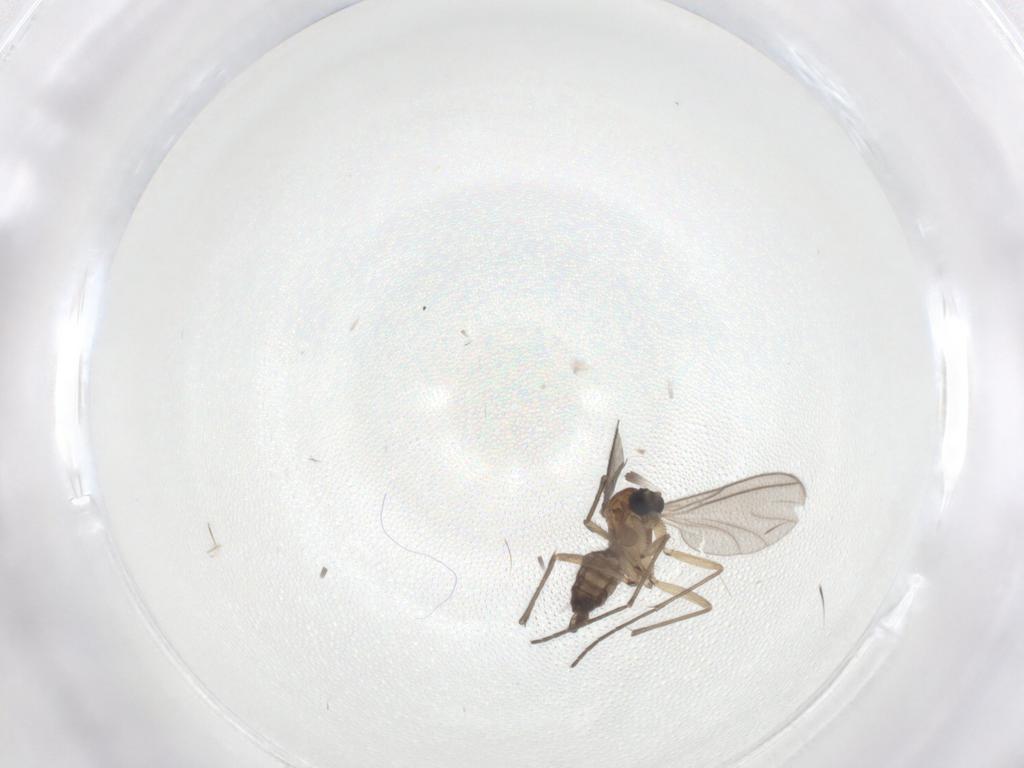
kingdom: Animalia
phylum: Arthropoda
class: Insecta
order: Diptera
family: Sciaridae
